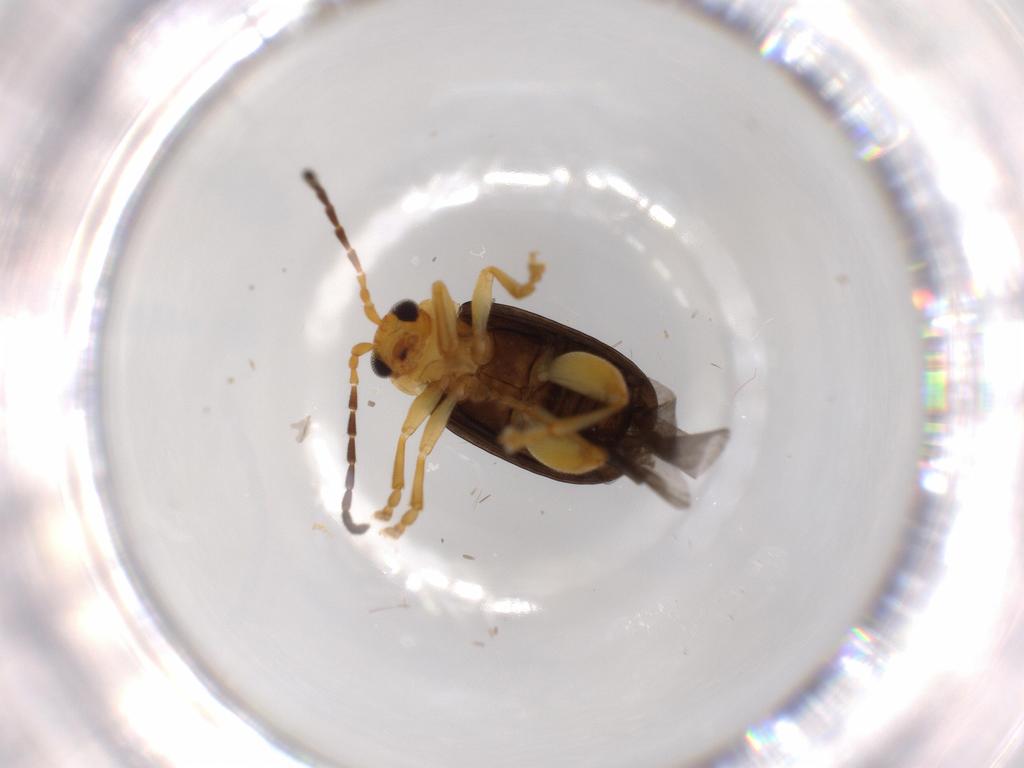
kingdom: Animalia
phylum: Arthropoda
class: Insecta
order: Coleoptera
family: Chrysomelidae
